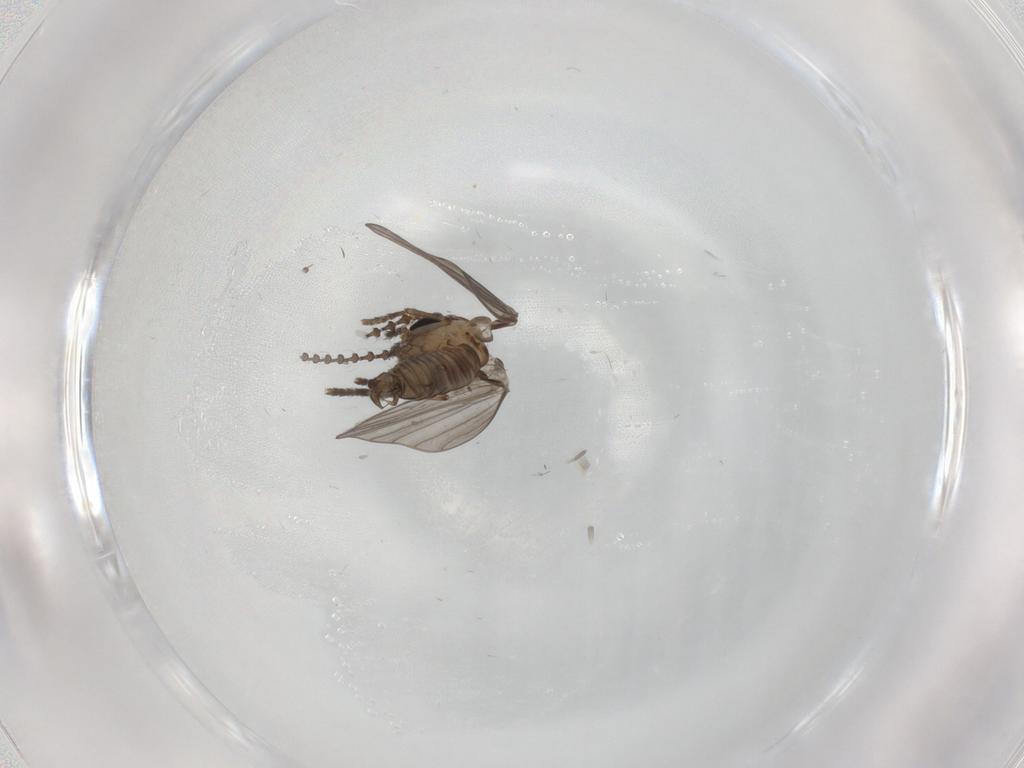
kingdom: Animalia
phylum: Arthropoda
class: Insecta
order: Diptera
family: Psychodidae
